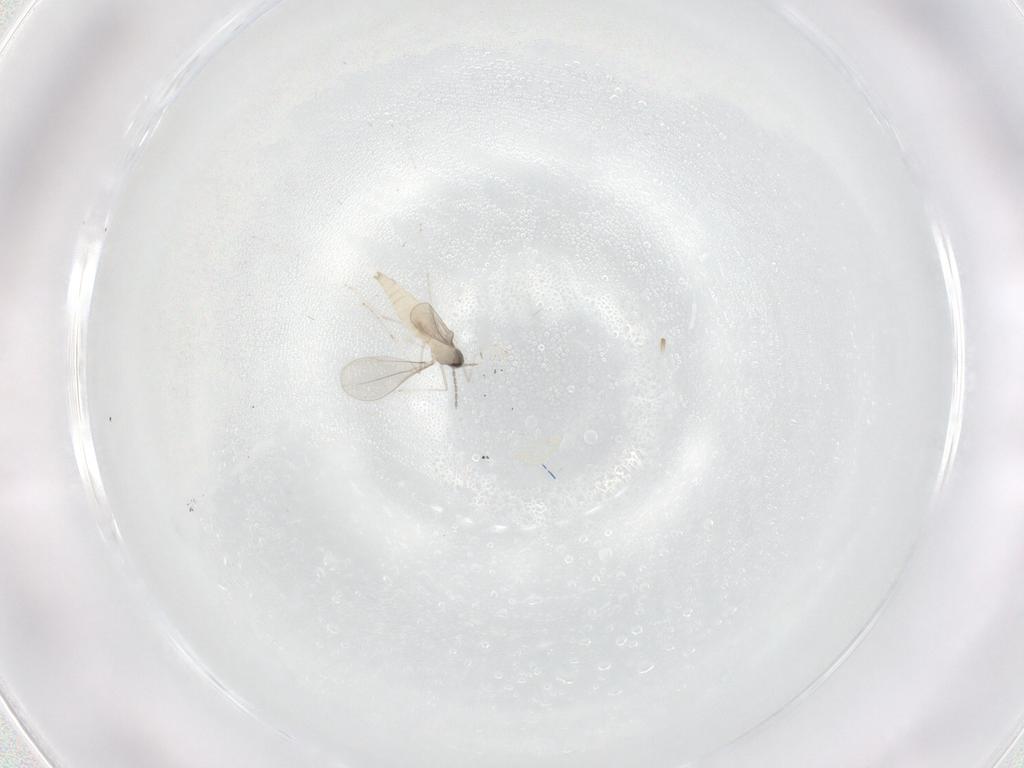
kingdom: Animalia
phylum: Arthropoda
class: Insecta
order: Diptera
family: Cecidomyiidae
